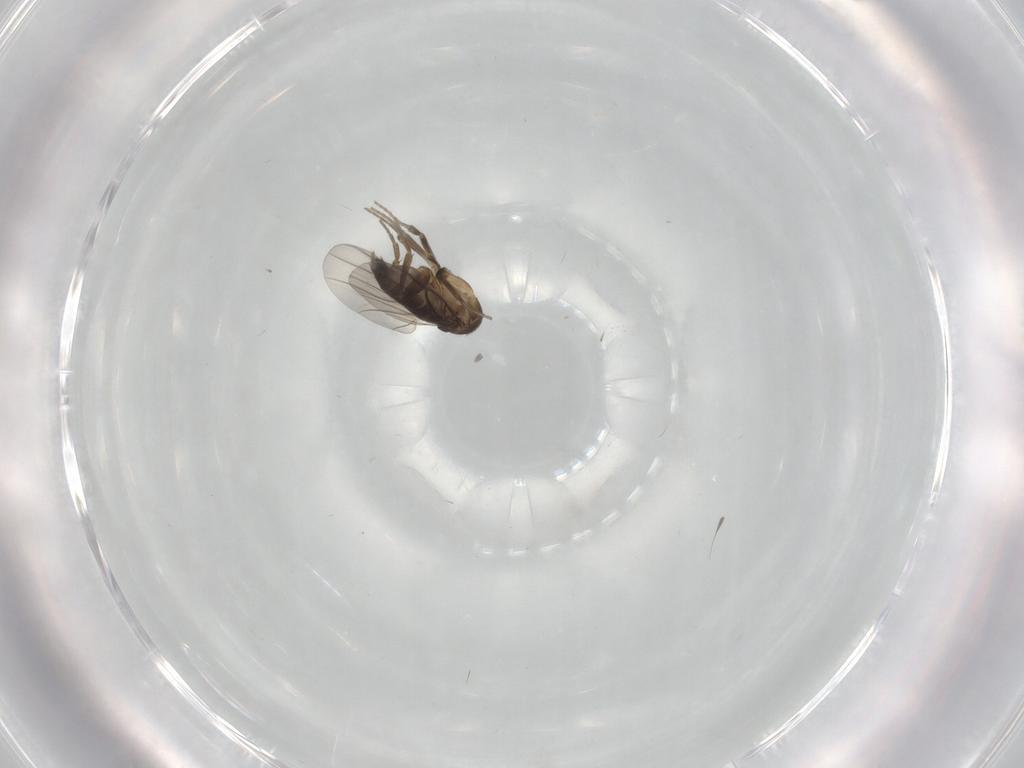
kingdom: Animalia
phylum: Arthropoda
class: Insecta
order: Diptera
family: Phoridae
